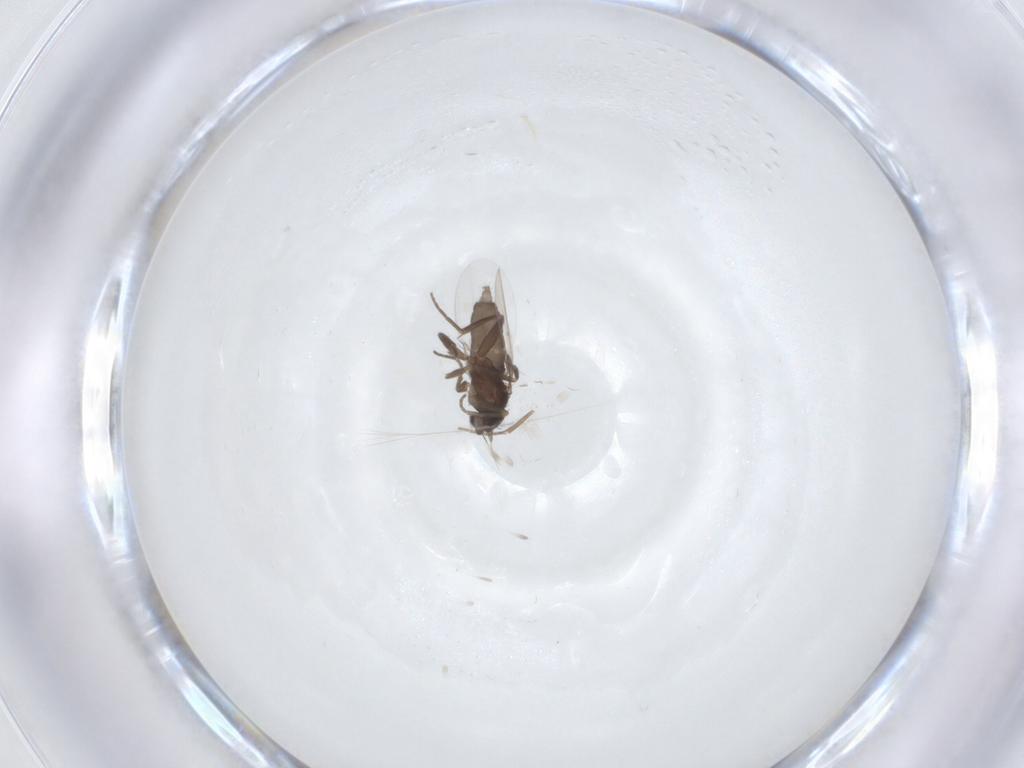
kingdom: Animalia
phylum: Arthropoda
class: Insecta
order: Diptera
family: Phoridae
